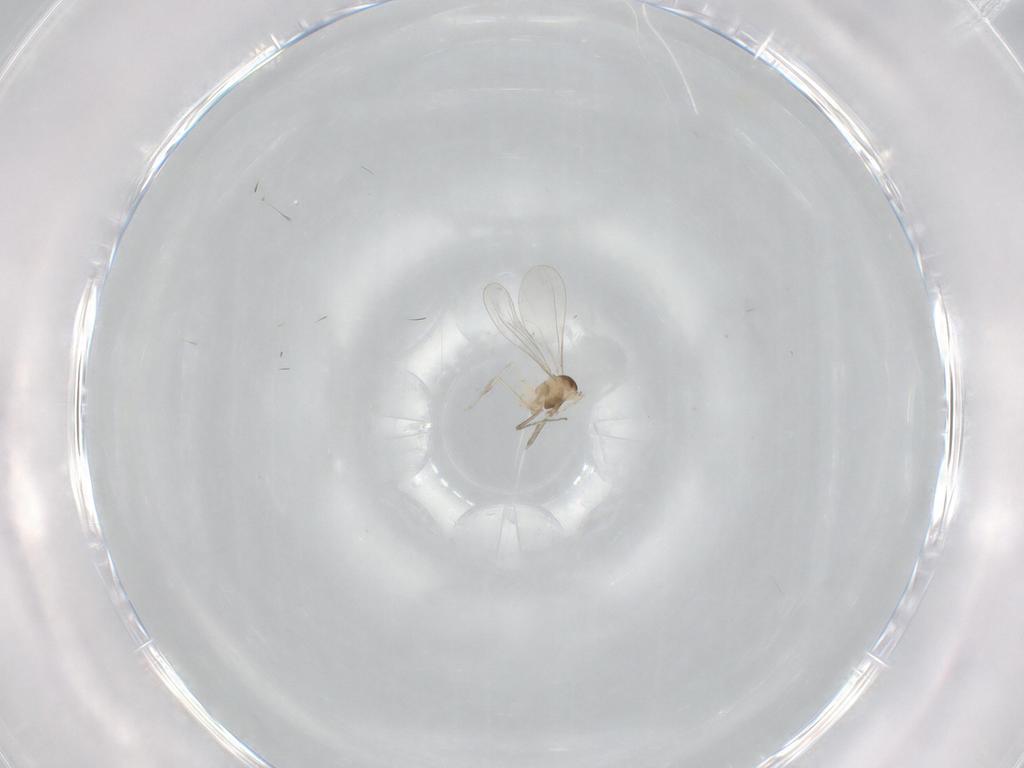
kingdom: Animalia
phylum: Arthropoda
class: Insecta
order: Diptera
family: Cecidomyiidae
